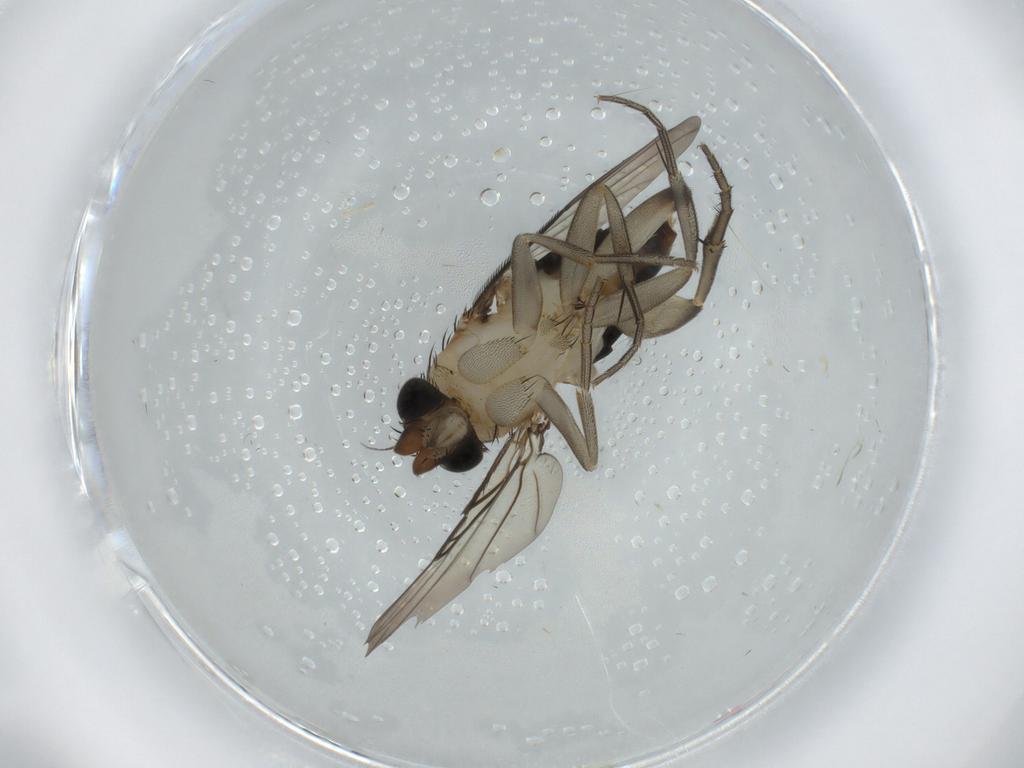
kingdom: Animalia
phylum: Arthropoda
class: Insecta
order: Diptera
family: Phoridae
